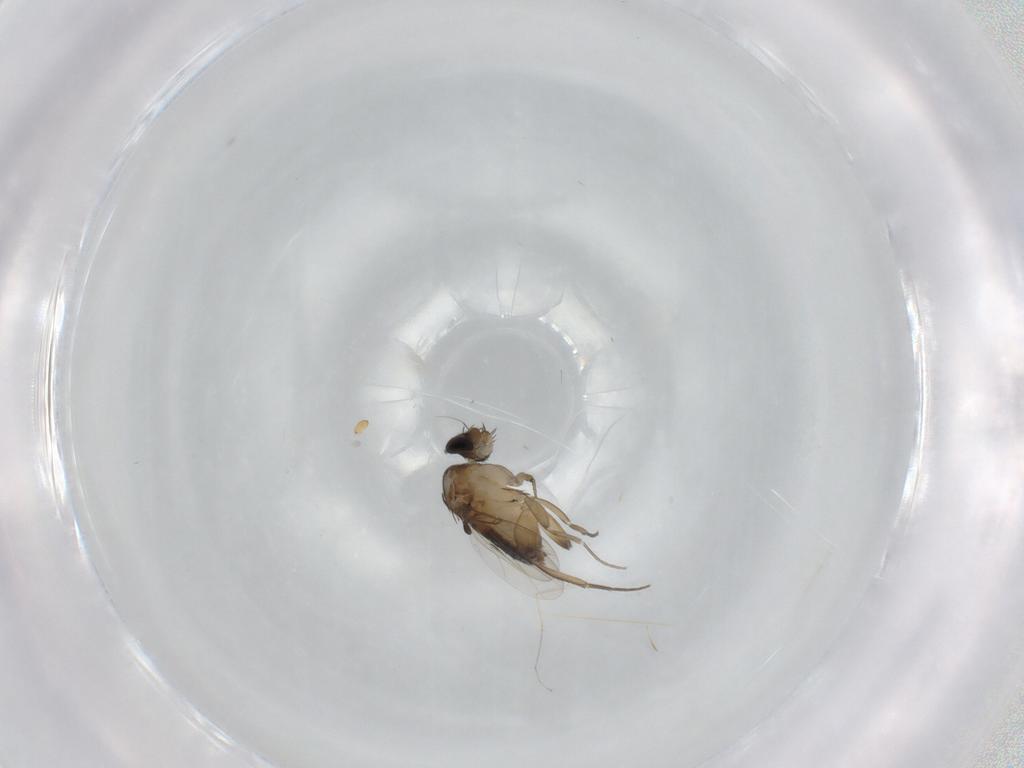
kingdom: Animalia
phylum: Arthropoda
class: Insecta
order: Diptera
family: Phoridae
